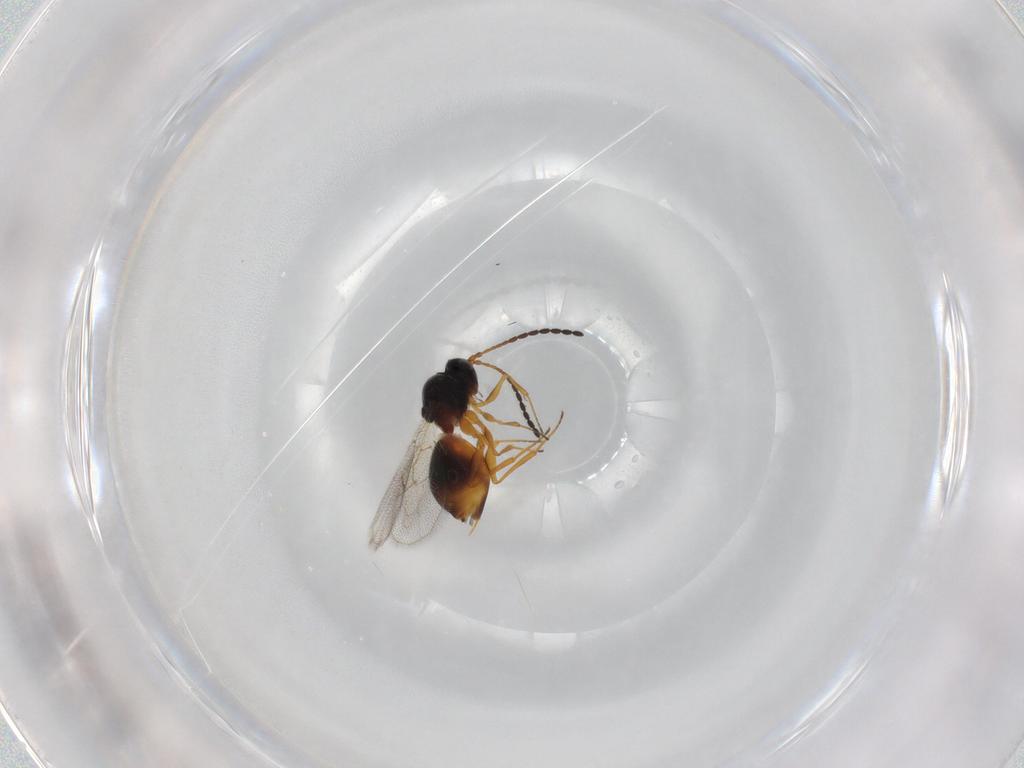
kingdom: Animalia
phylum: Arthropoda
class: Insecta
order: Hymenoptera
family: Figitidae
